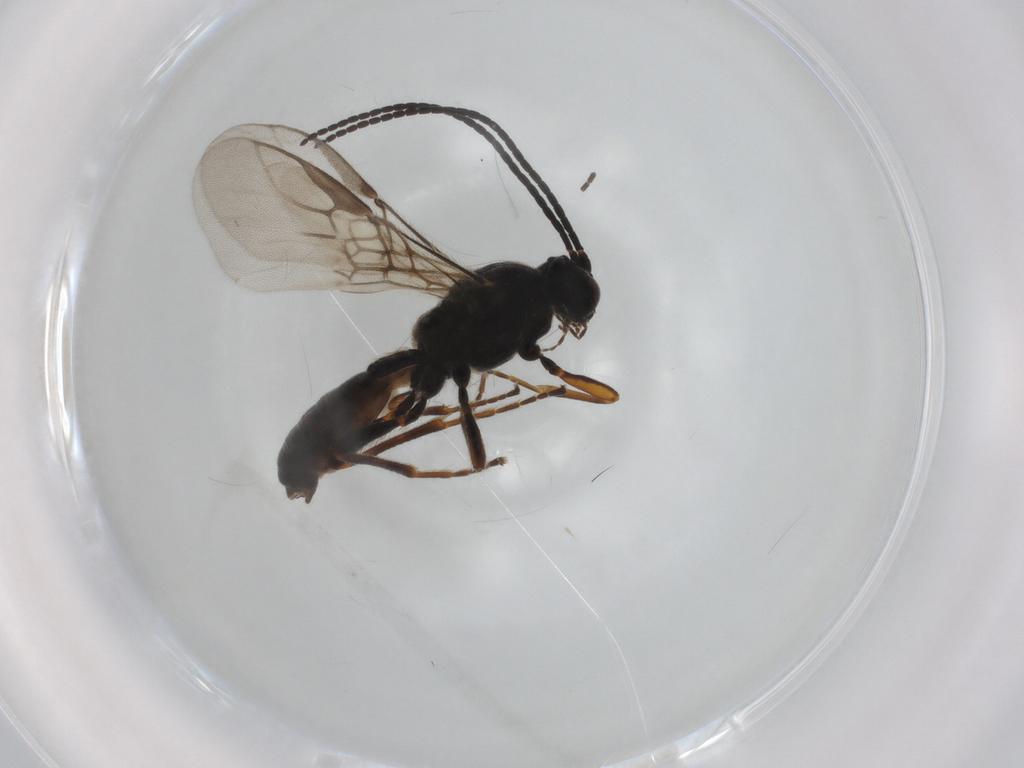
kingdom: Animalia
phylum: Arthropoda
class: Insecta
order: Hymenoptera
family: Braconidae
